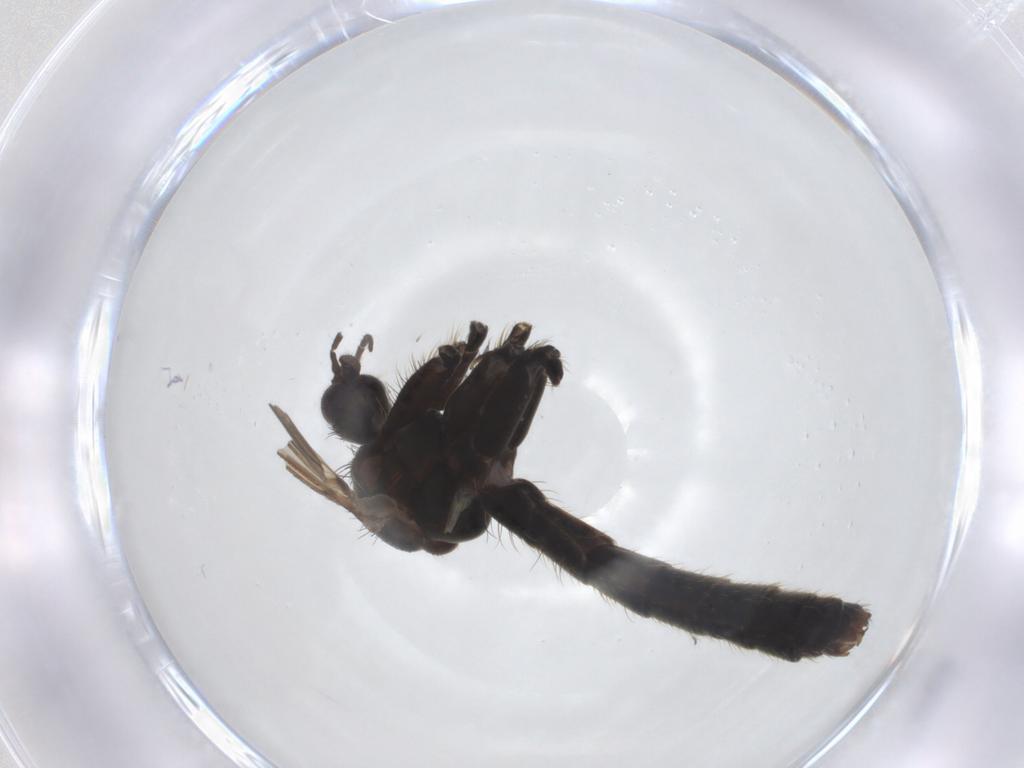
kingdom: Animalia
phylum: Arthropoda
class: Insecta
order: Diptera
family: Mycetophilidae
